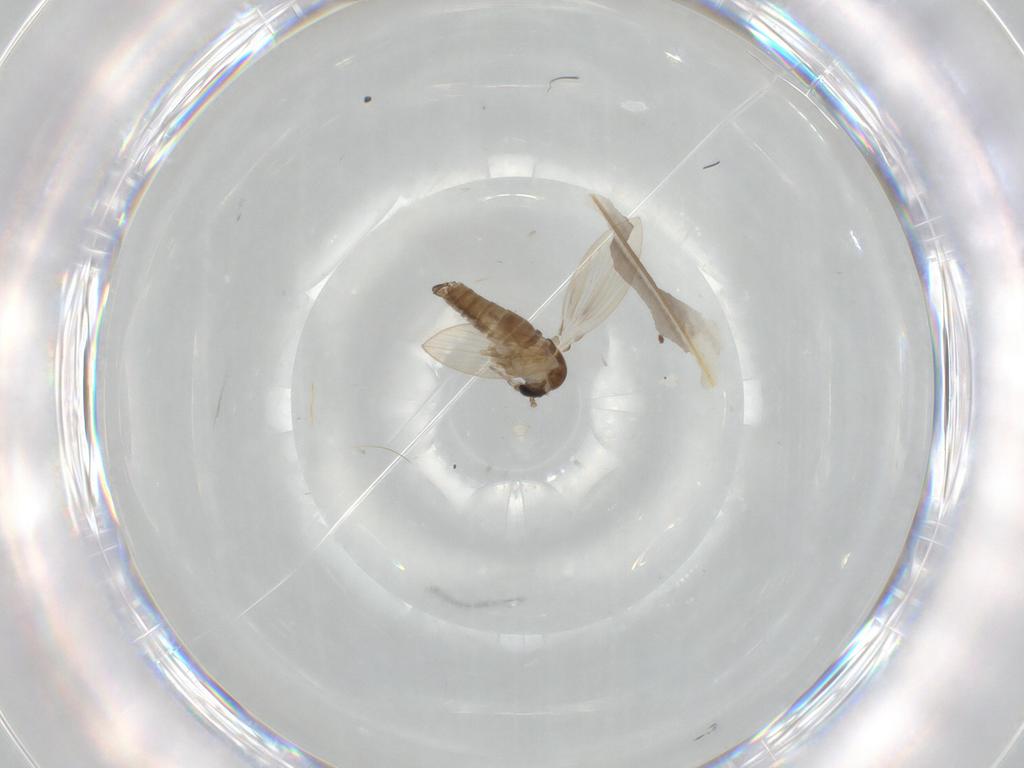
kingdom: Animalia
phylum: Arthropoda
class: Insecta
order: Diptera
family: Psychodidae
